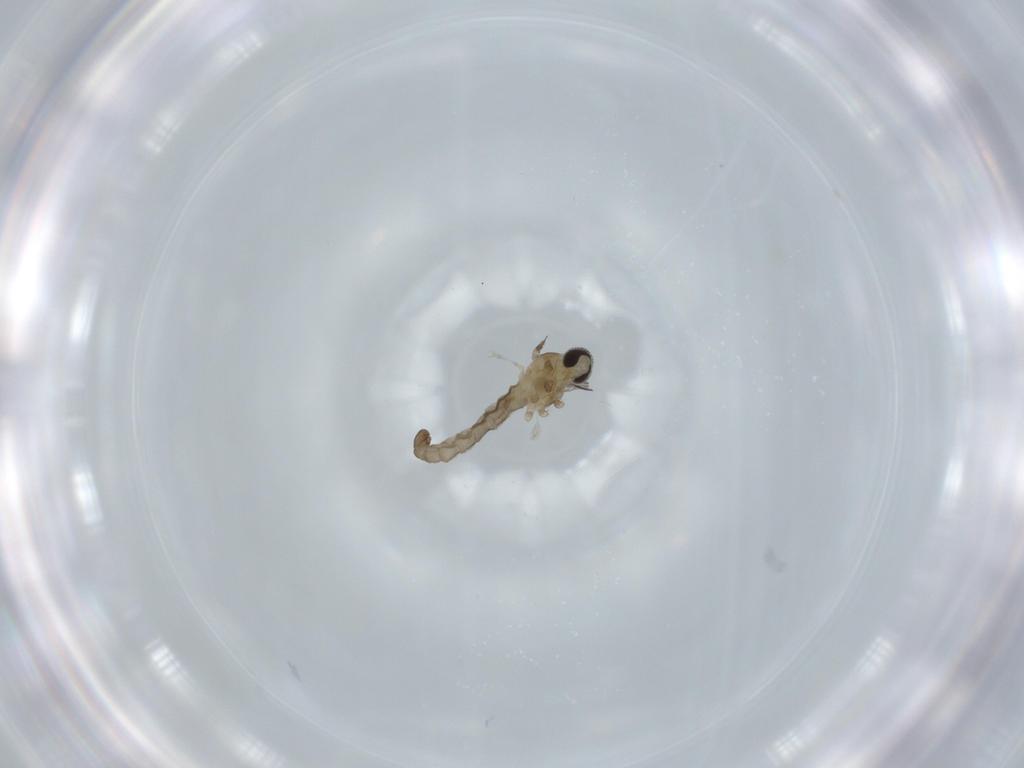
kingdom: Animalia
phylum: Arthropoda
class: Insecta
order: Diptera
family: Cecidomyiidae
